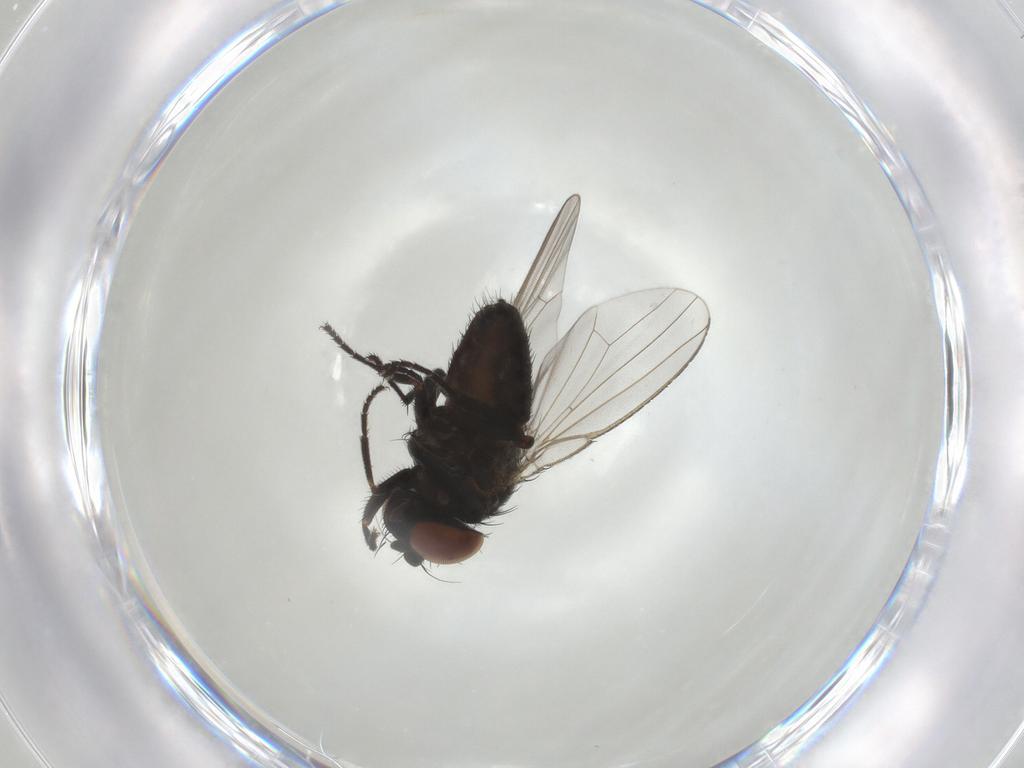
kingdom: Animalia
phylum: Arthropoda
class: Insecta
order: Diptera
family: Milichiidae
